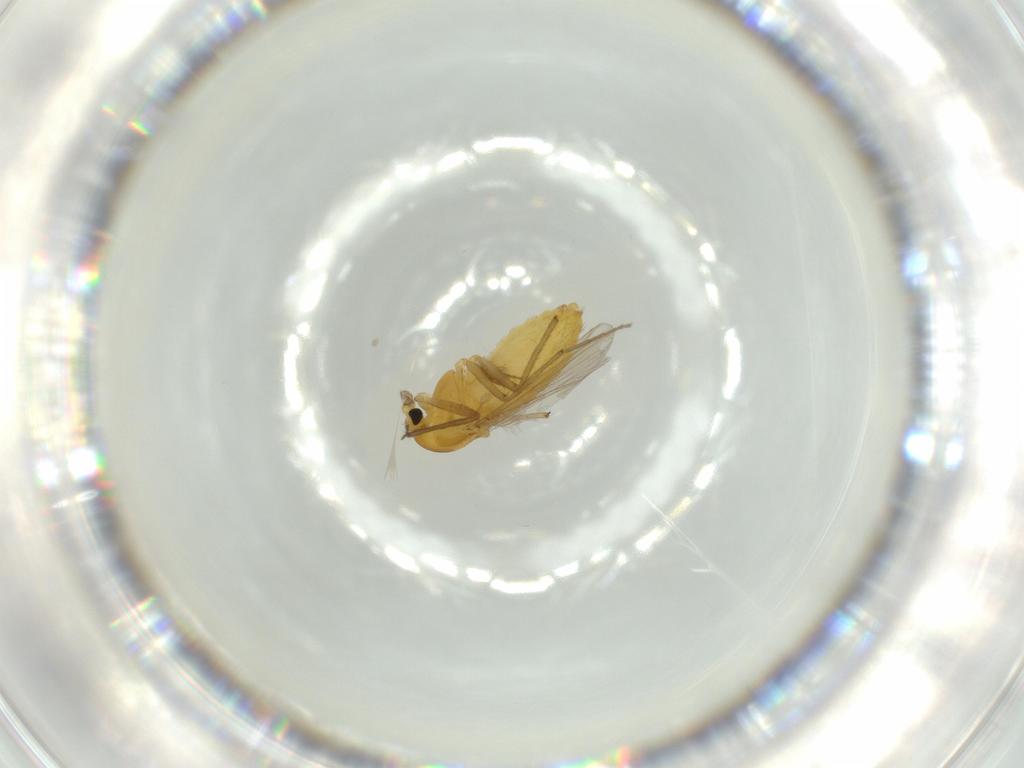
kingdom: Animalia
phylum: Arthropoda
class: Insecta
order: Diptera
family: Chironomidae
